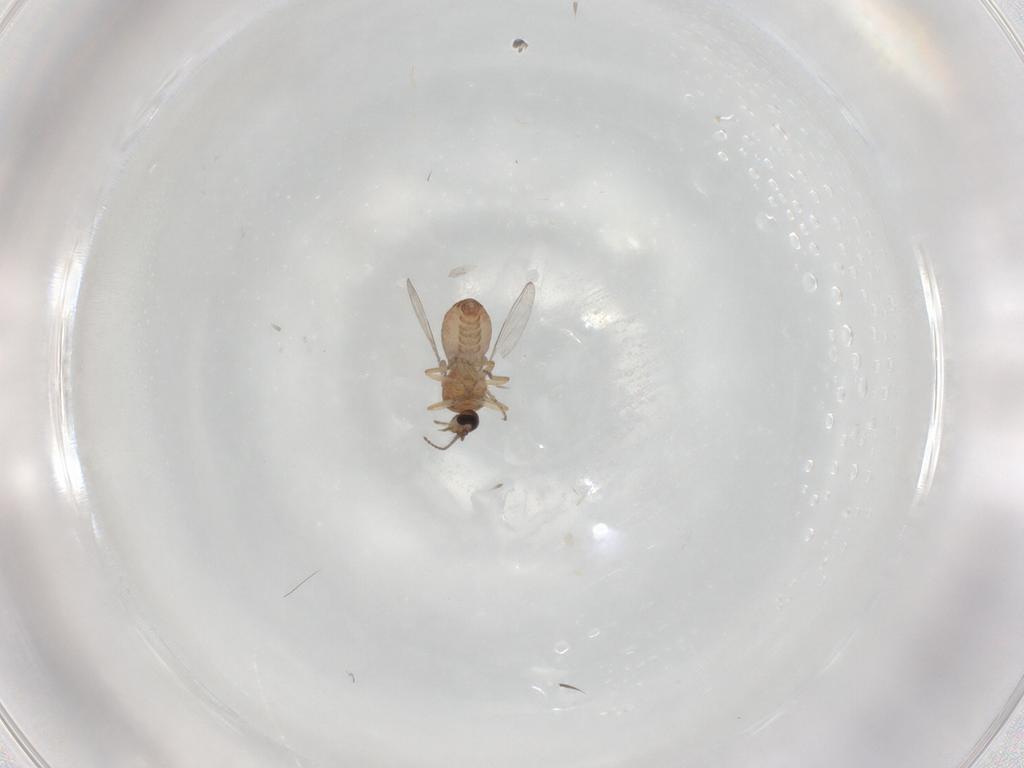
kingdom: Animalia
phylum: Arthropoda
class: Insecta
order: Diptera
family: Ceratopogonidae
